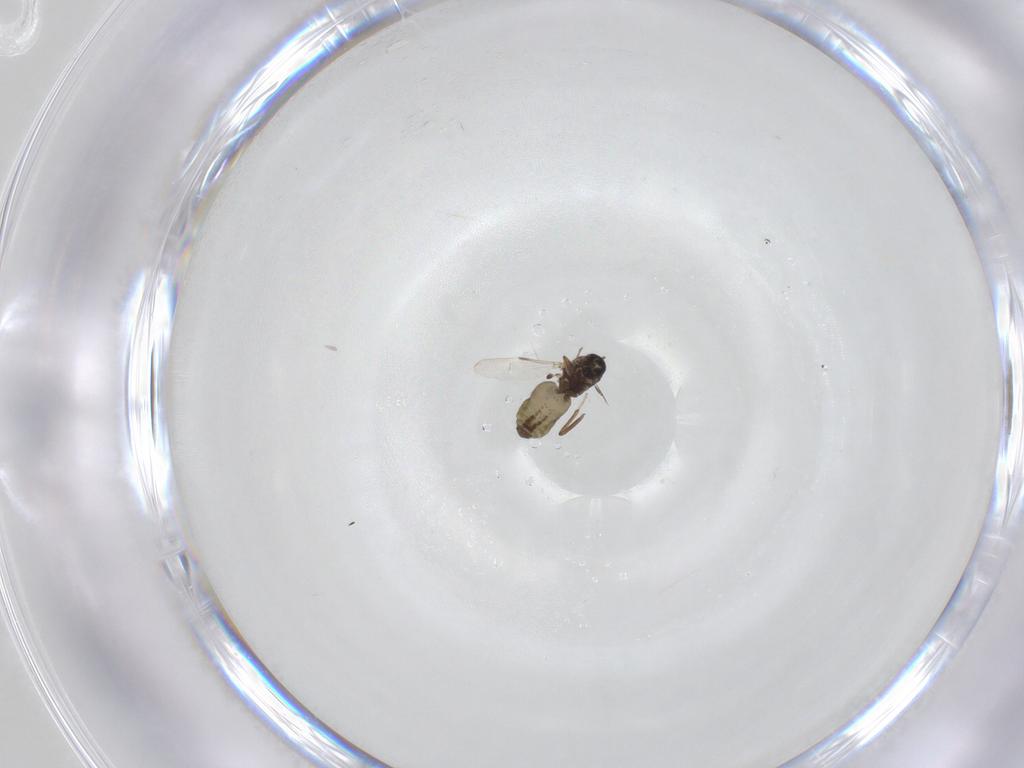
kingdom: Animalia
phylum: Arthropoda
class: Insecta
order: Diptera
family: Ceratopogonidae
